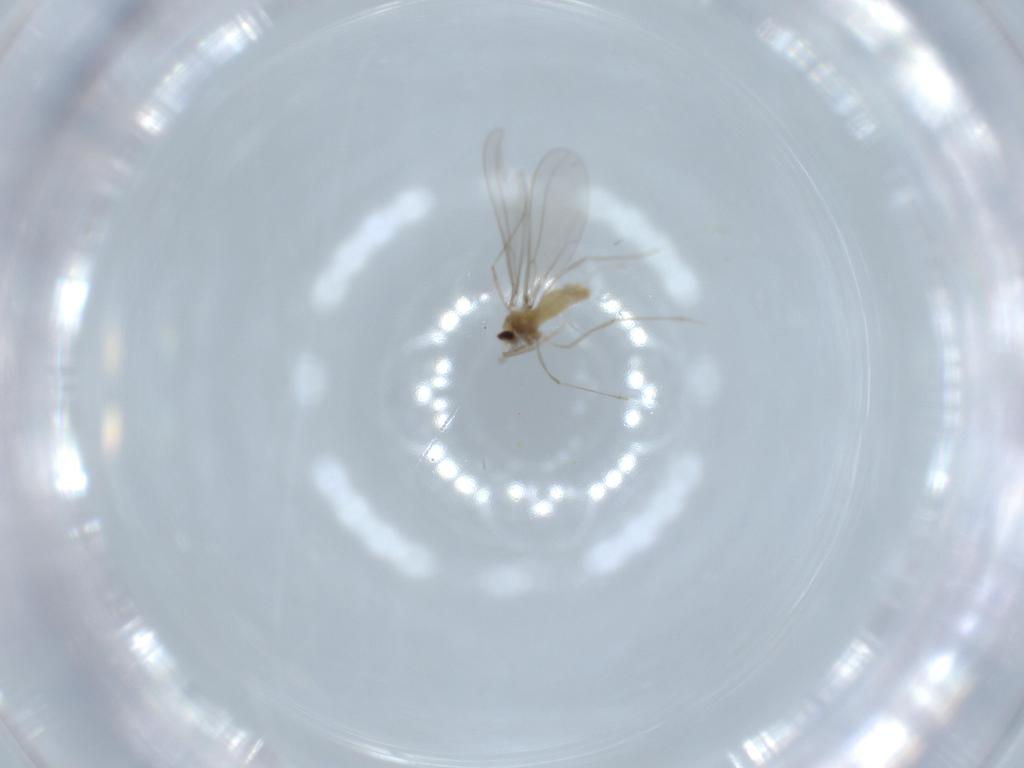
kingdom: Animalia
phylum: Arthropoda
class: Insecta
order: Diptera
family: Cecidomyiidae
